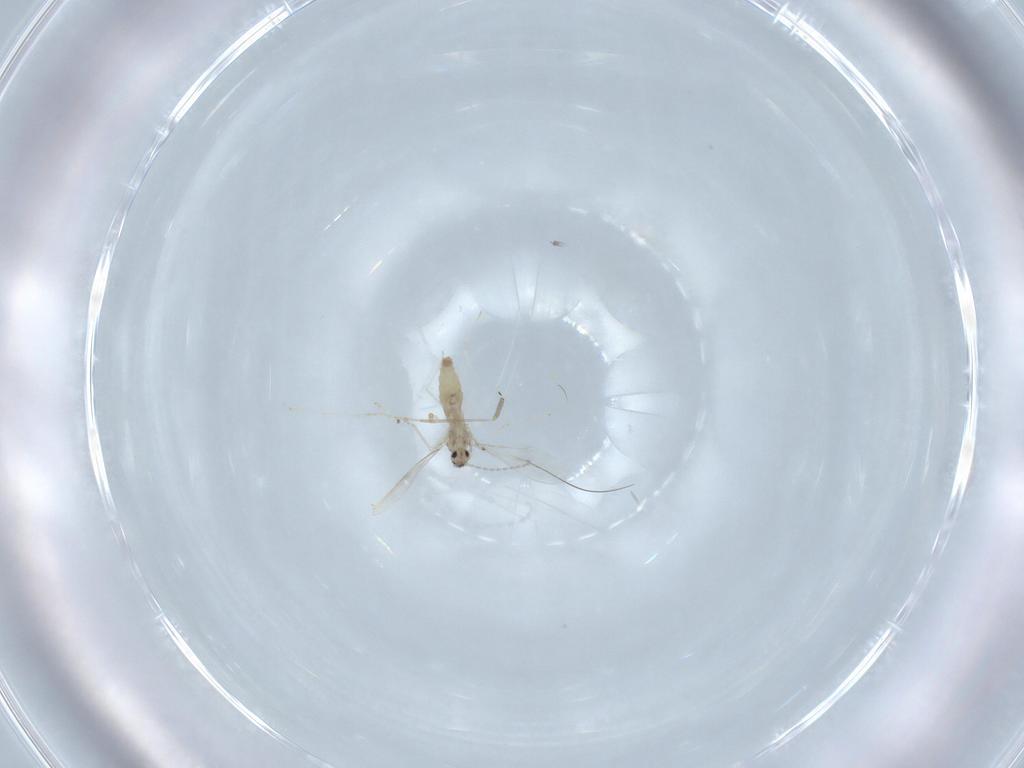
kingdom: Animalia
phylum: Arthropoda
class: Insecta
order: Diptera
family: Cecidomyiidae
